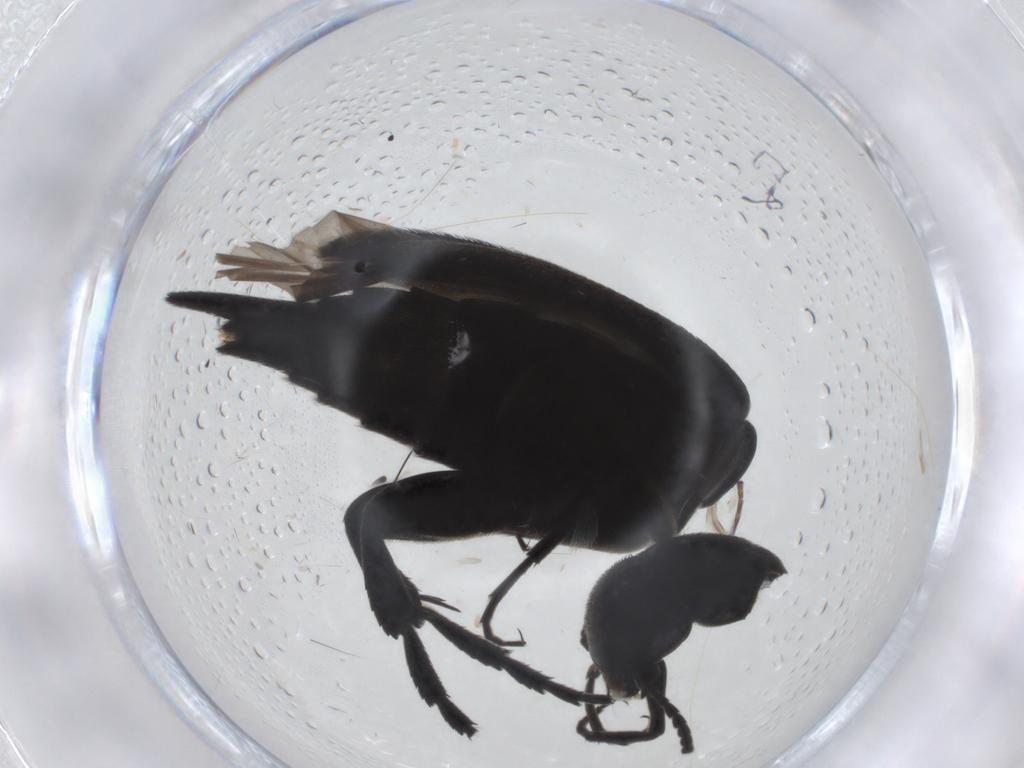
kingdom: Animalia
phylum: Arthropoda
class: Insecta
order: Coleoptera
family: Mordellidae
